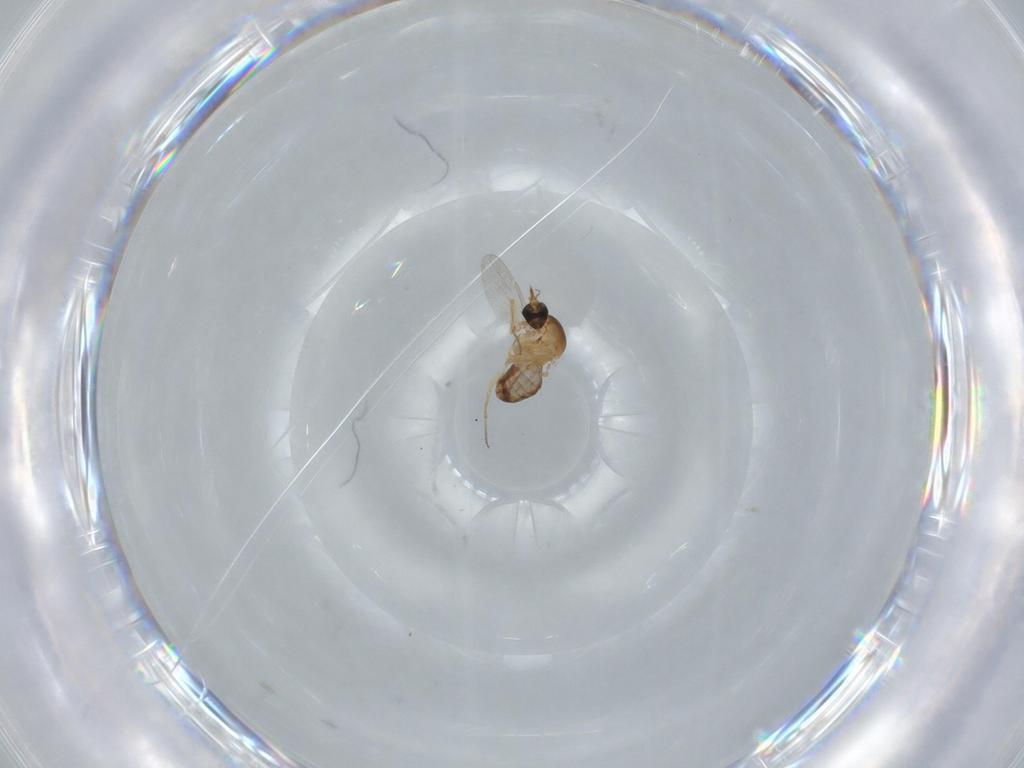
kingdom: Animalia
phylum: Arthropoda
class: Insecta
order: Diptera
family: Ceratopogonidae
